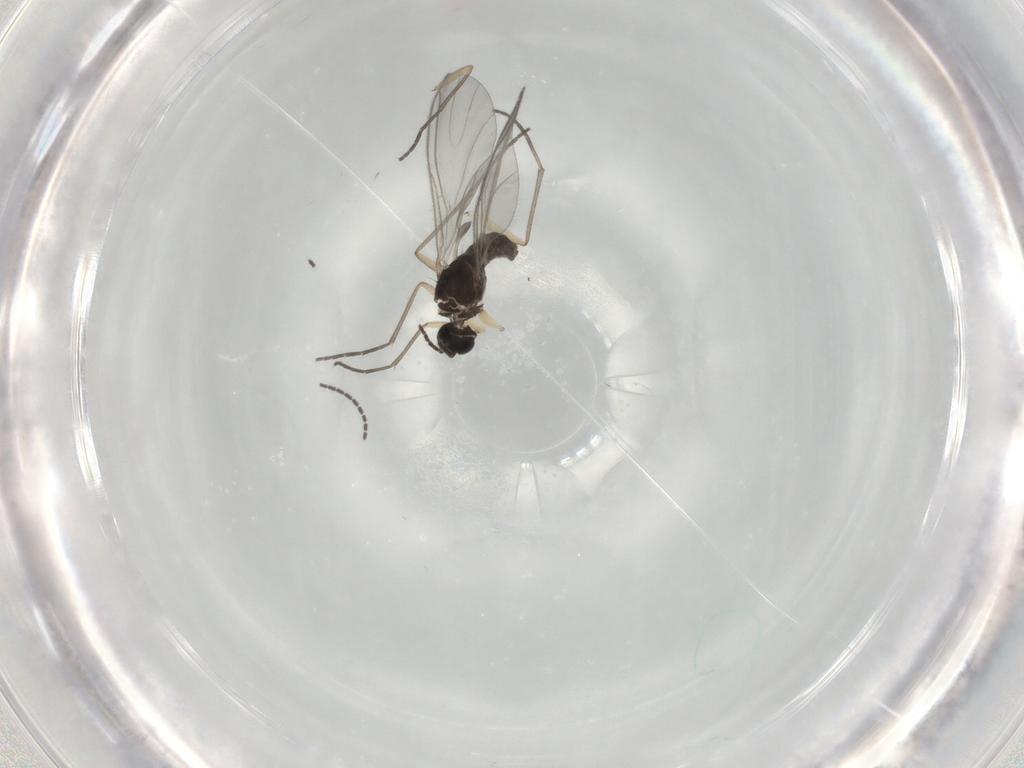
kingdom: Animalia
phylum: Arthropoda
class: Insecta
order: Diptera
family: Sciaridae
